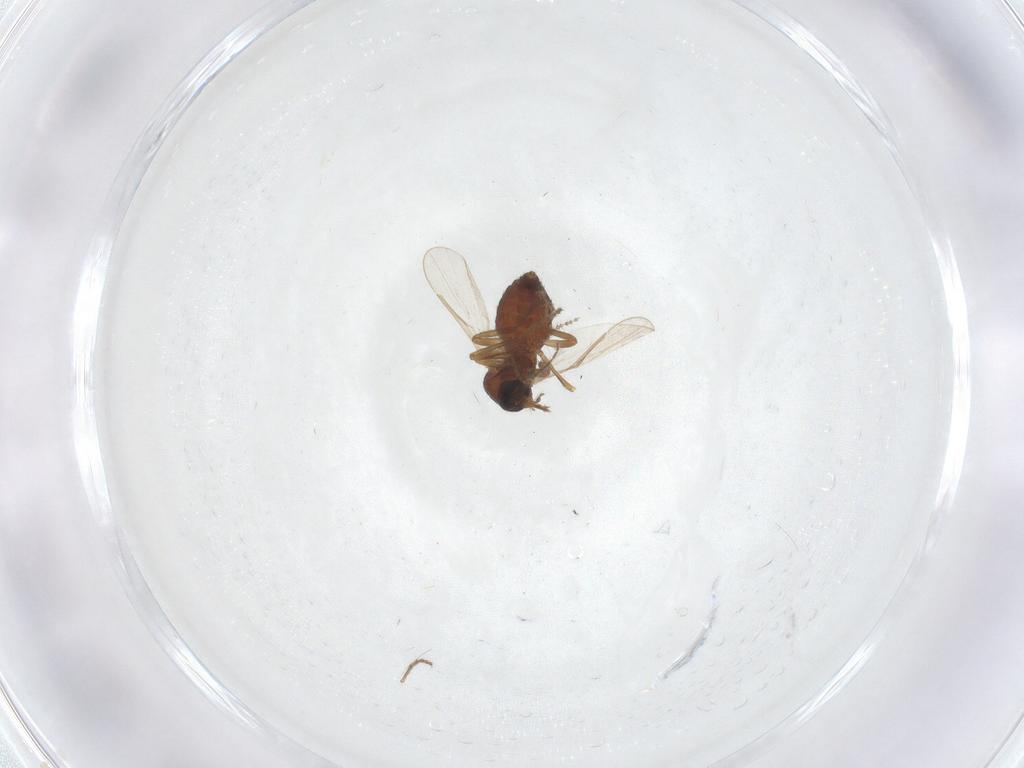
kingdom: Animalia
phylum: Arthropoda
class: Insecta
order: Diptera
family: Ceratopogonidae
